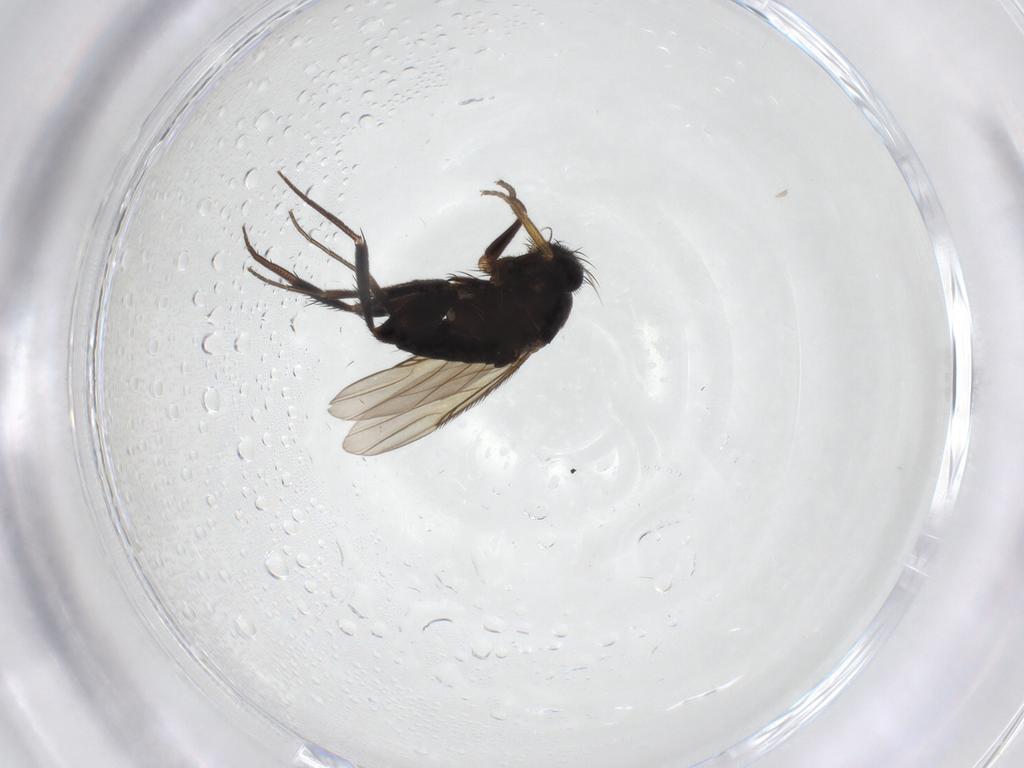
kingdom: Animalia
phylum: Arthropoda
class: Insecta
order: Diptera
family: Phoridae
